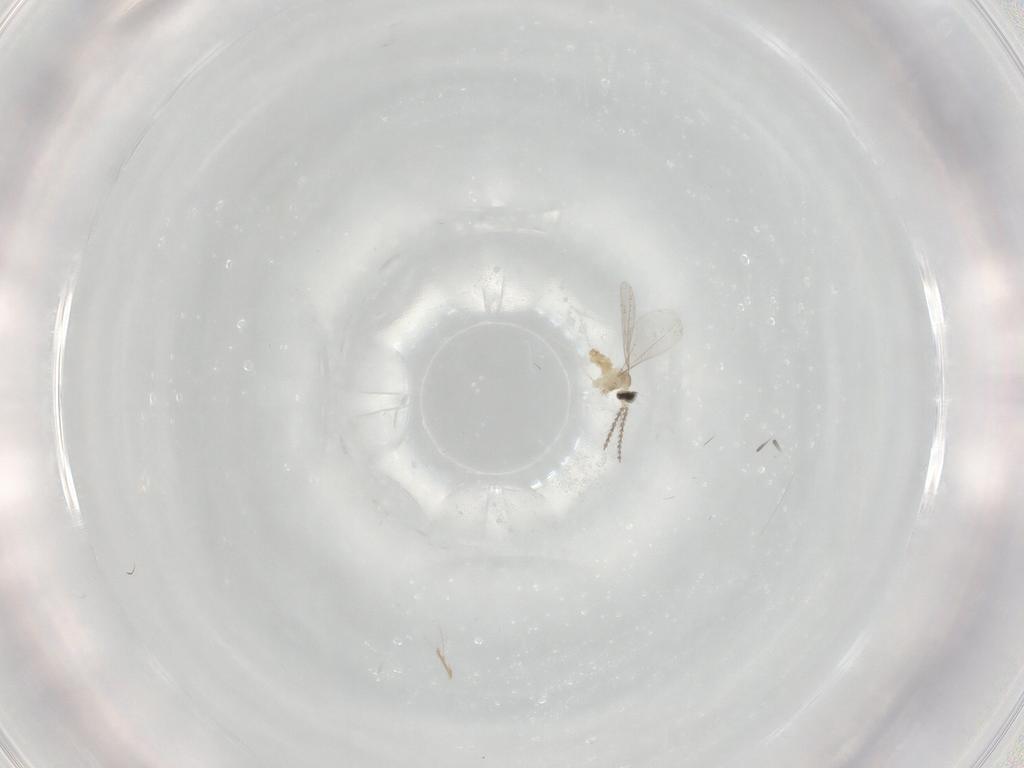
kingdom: Animalia
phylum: Arthropoda
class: Insecta
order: Diptera
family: Cecidomyiidae
